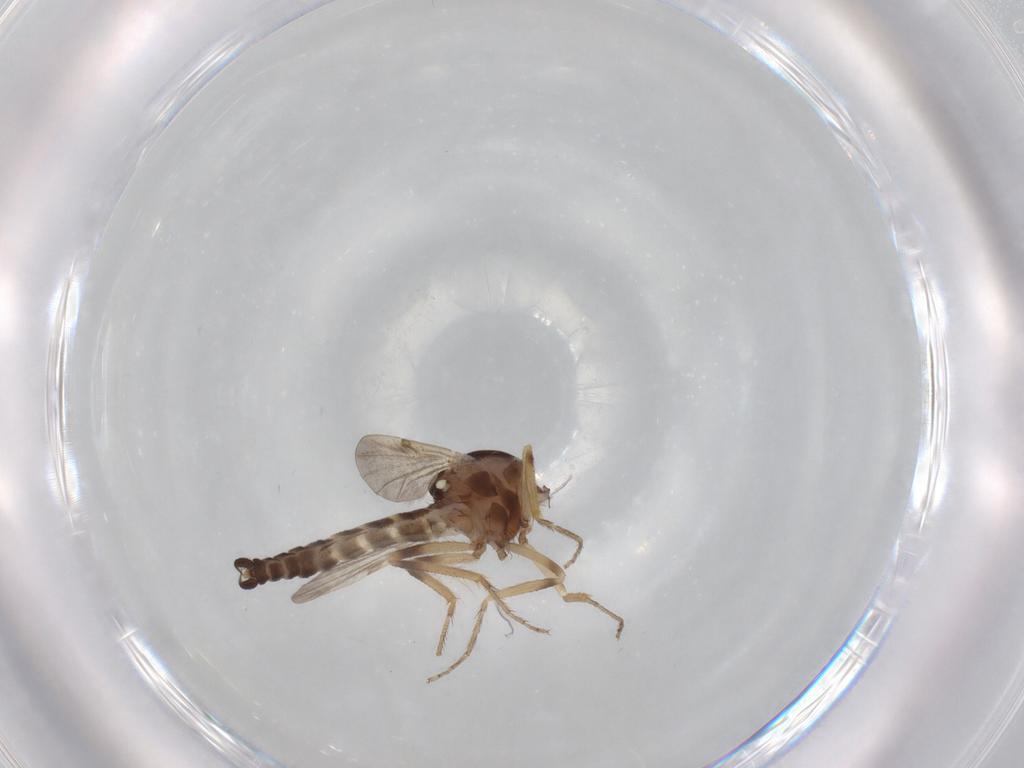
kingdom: Animalia
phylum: Arthropoda
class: Insecta
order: Diptera
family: Ceratopogonidae
